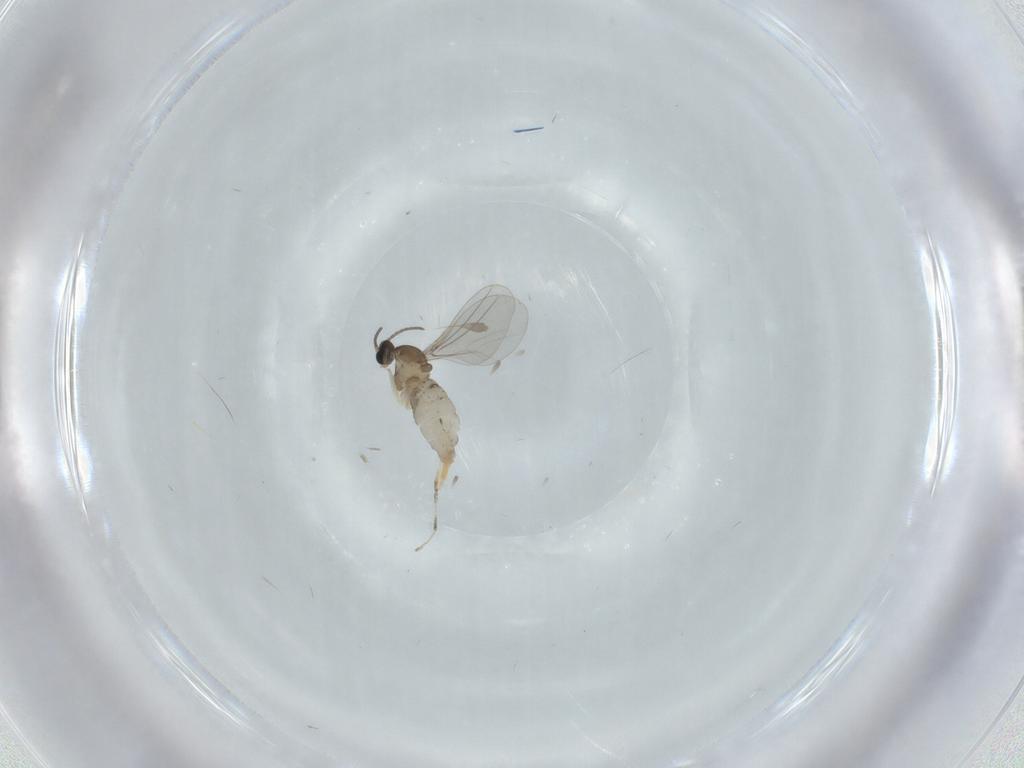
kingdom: Animalia
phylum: Arthropoda
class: Insecta
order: Diptera
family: Cecidomyiidae
